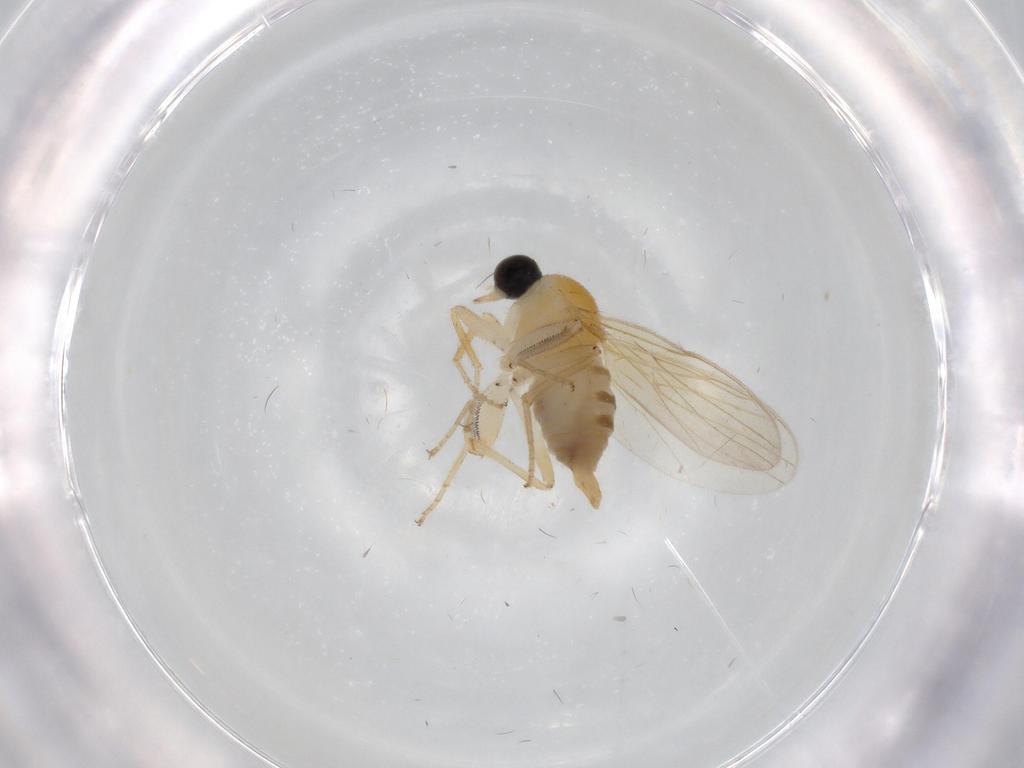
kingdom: Animalia
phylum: Arthropoda
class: Insecta
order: Diptera
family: Hybotidae
